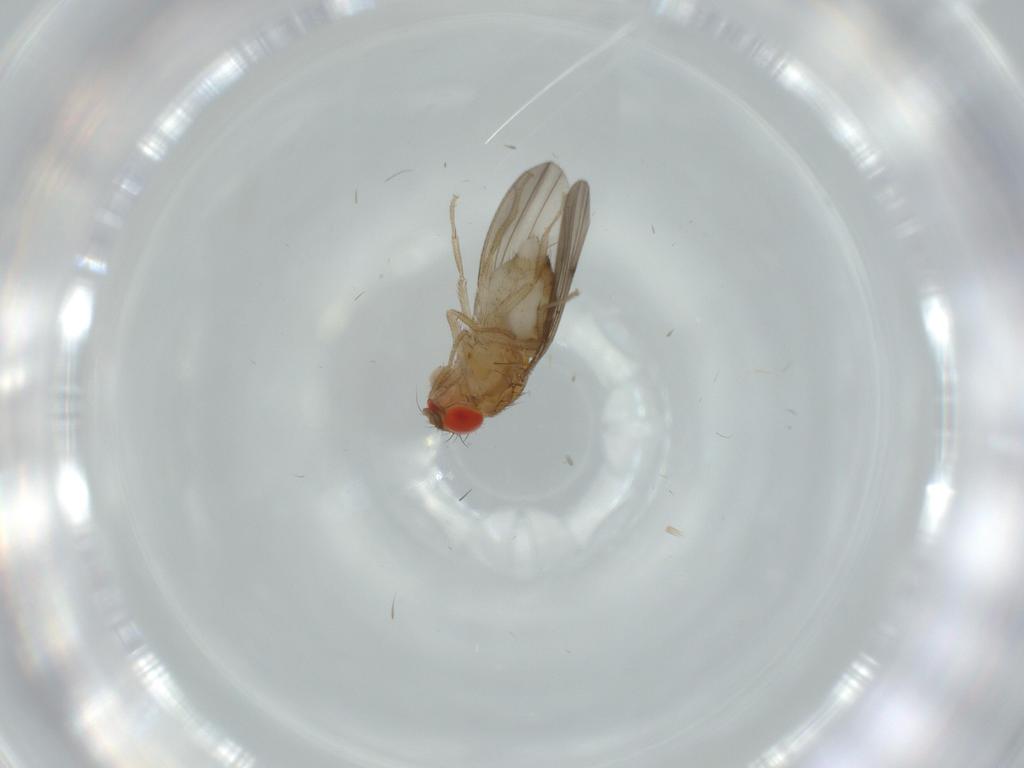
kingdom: Animalia
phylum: Arthropoda
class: Insecta
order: Diptera
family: Drosophilidae
